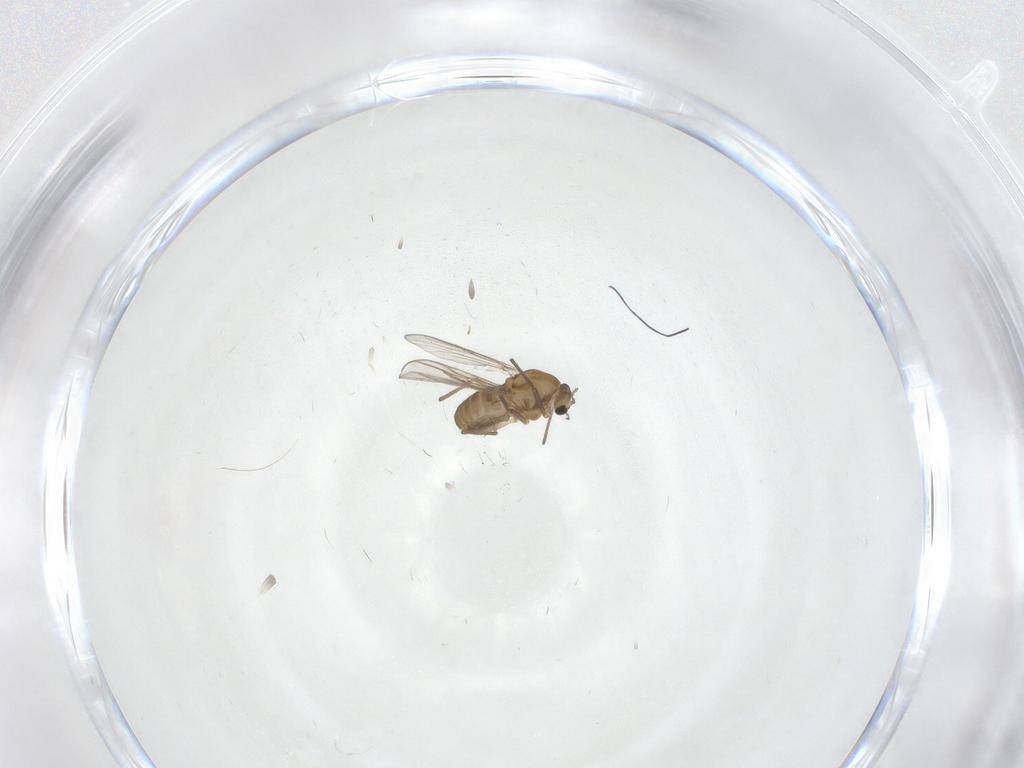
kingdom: Animalia
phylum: Arthropoda
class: Insecta
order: Diptera
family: Chironomidae
